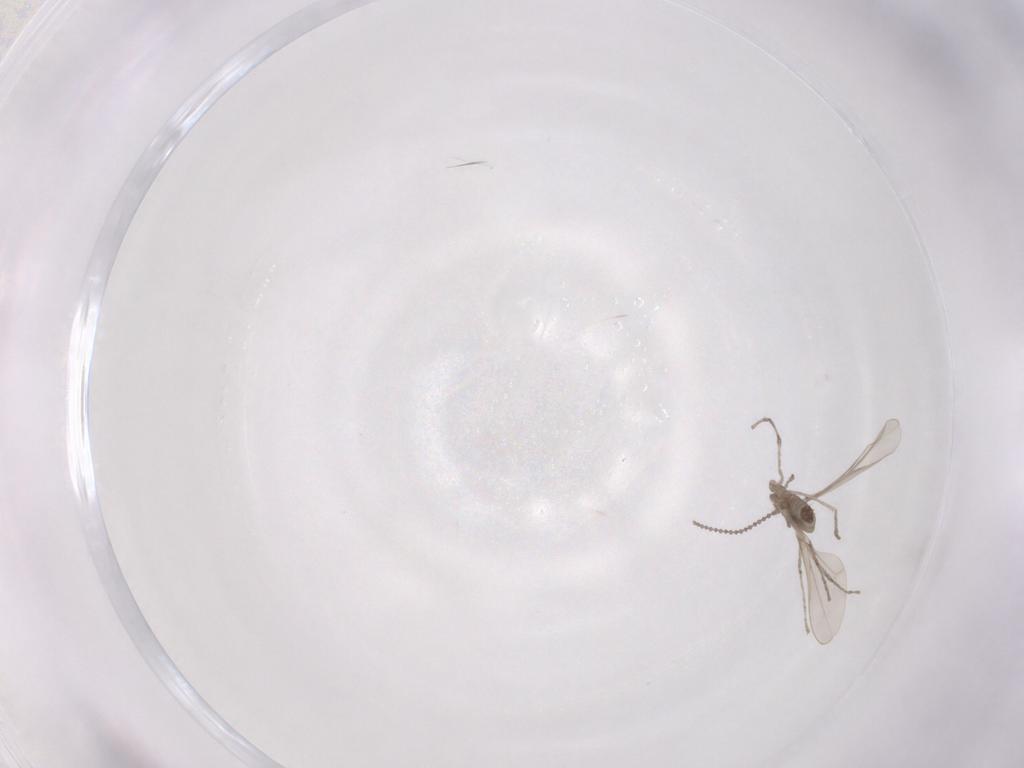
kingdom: Animalia
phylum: Arthropoda
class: Insecta
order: Diptera
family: Cecidomyiidae
